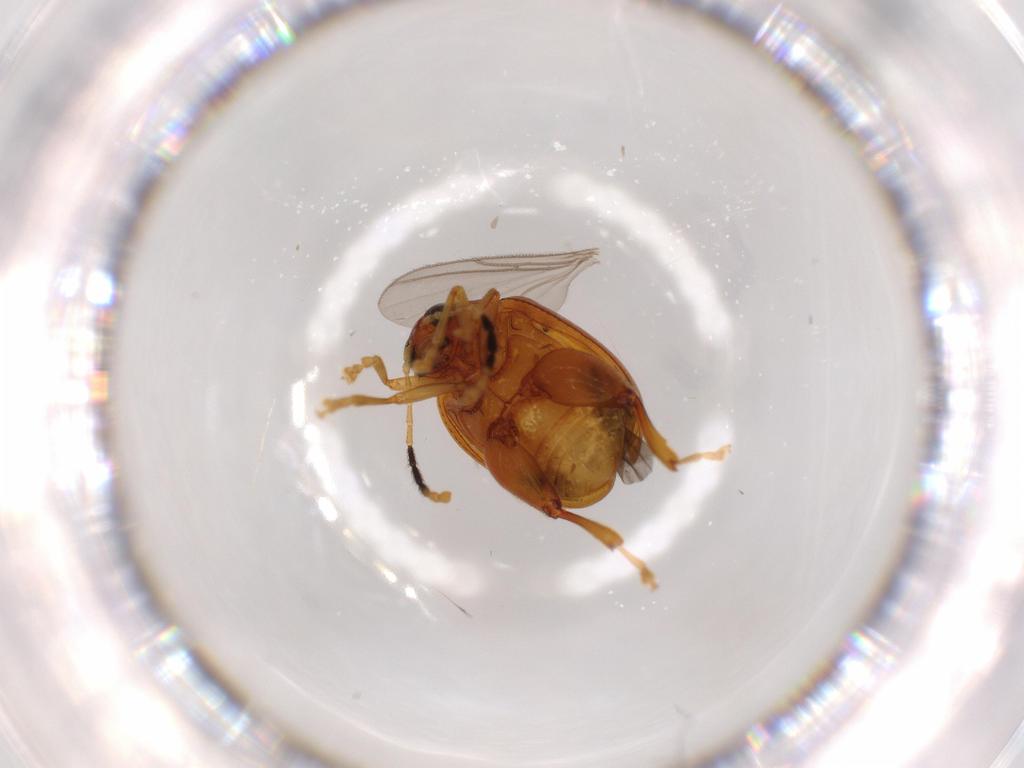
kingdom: Animalia
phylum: Arthropoda
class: Insecta
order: Coleoptera
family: Chrysomelidae
